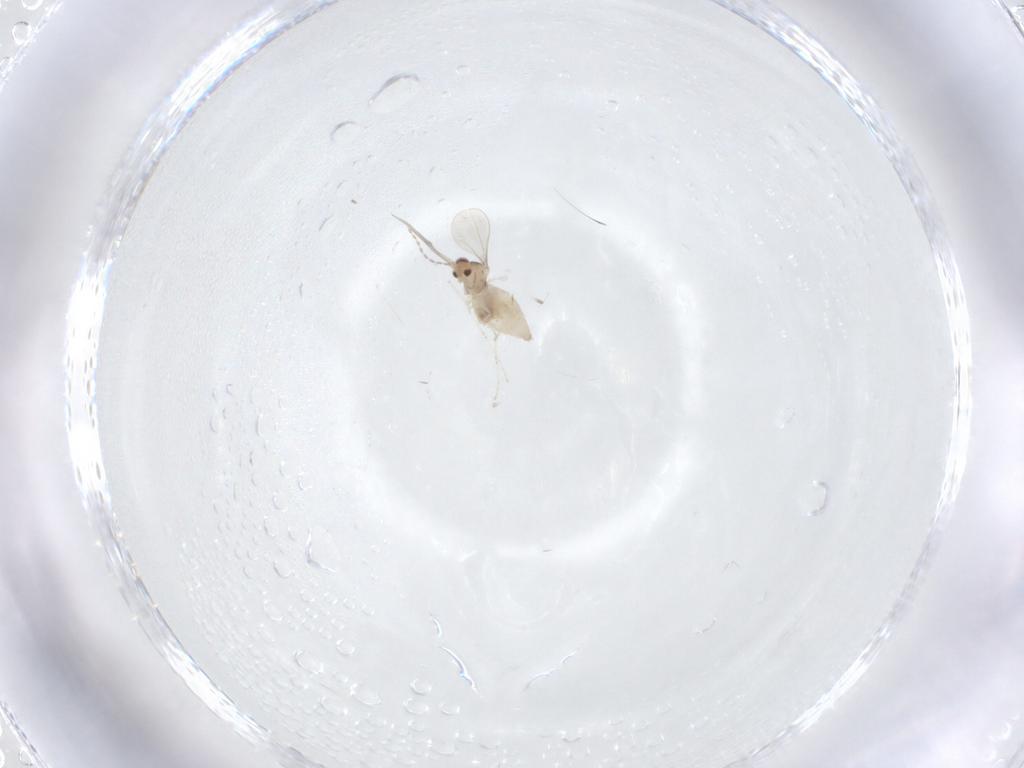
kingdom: Animalia
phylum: Arthropoda
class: Insecta
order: Diptera
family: Cecidomyiidae
